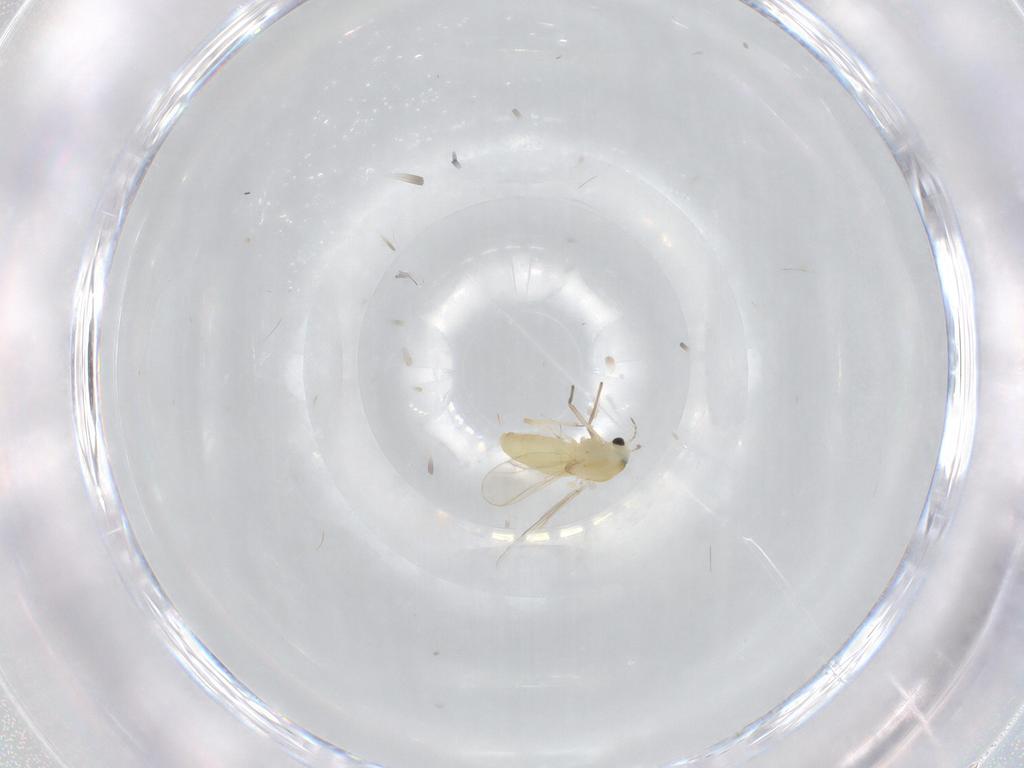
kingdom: Animalia
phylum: Arthropoda
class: Insecta
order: Diptera
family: Chironomidae
